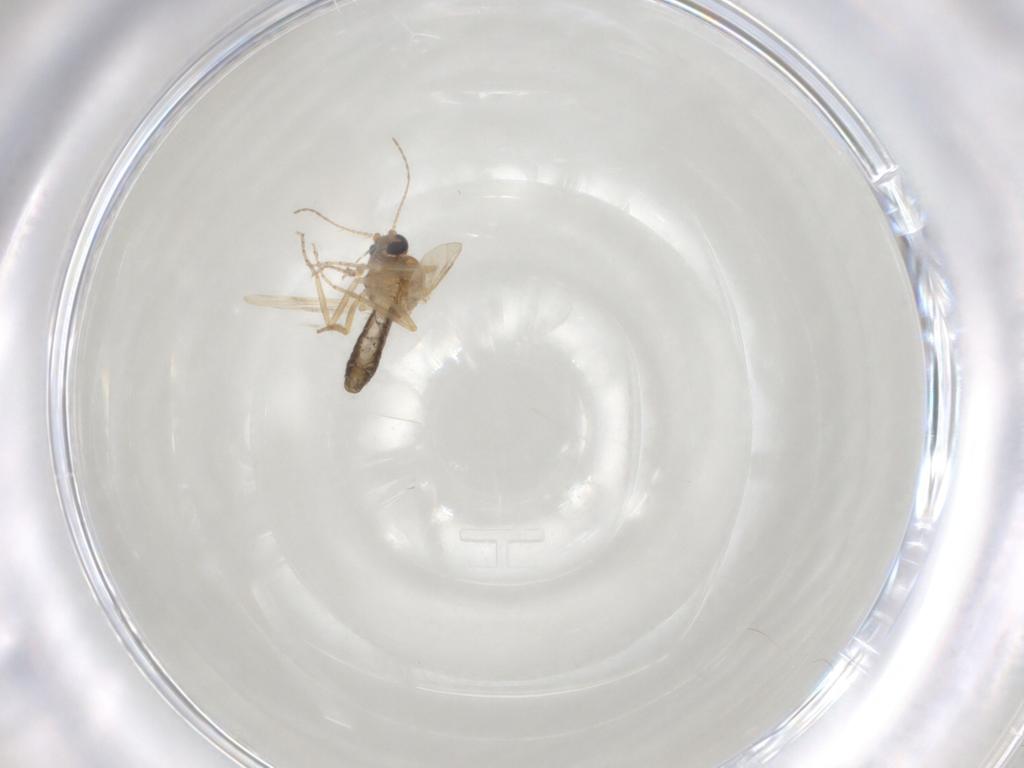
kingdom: Animalia
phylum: Arthropoda
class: Insecta
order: Diptera
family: Ceratopogonidae
